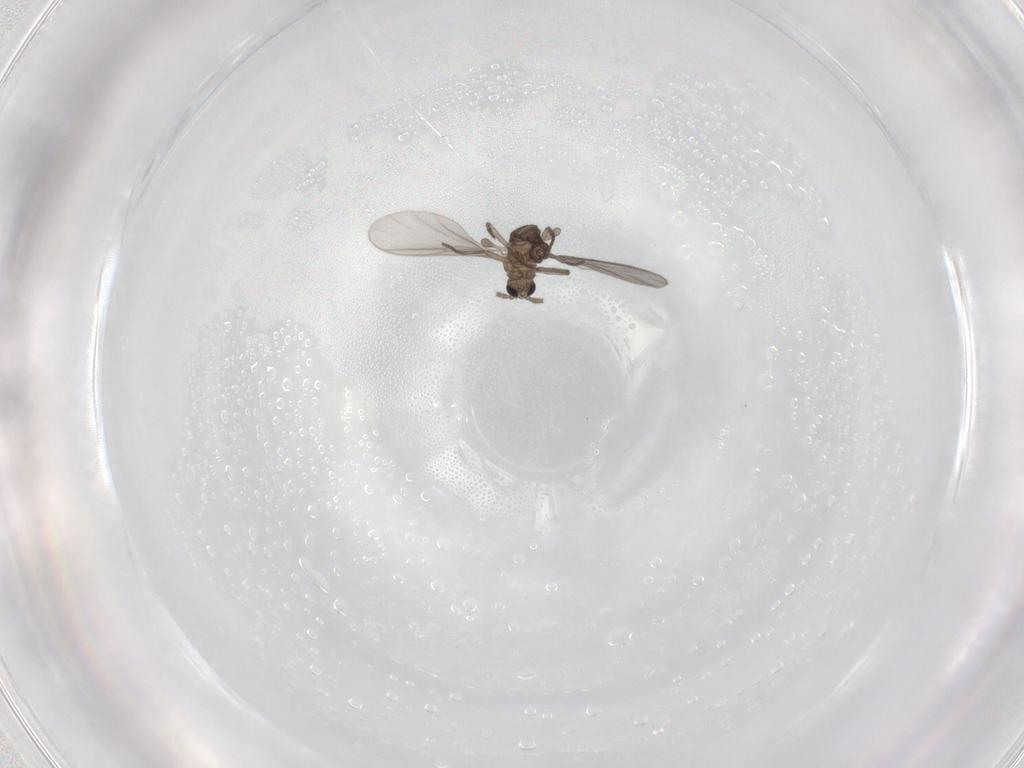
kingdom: Animalia
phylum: Arthropoda
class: Insecta
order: Diptera
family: Sciaridae
